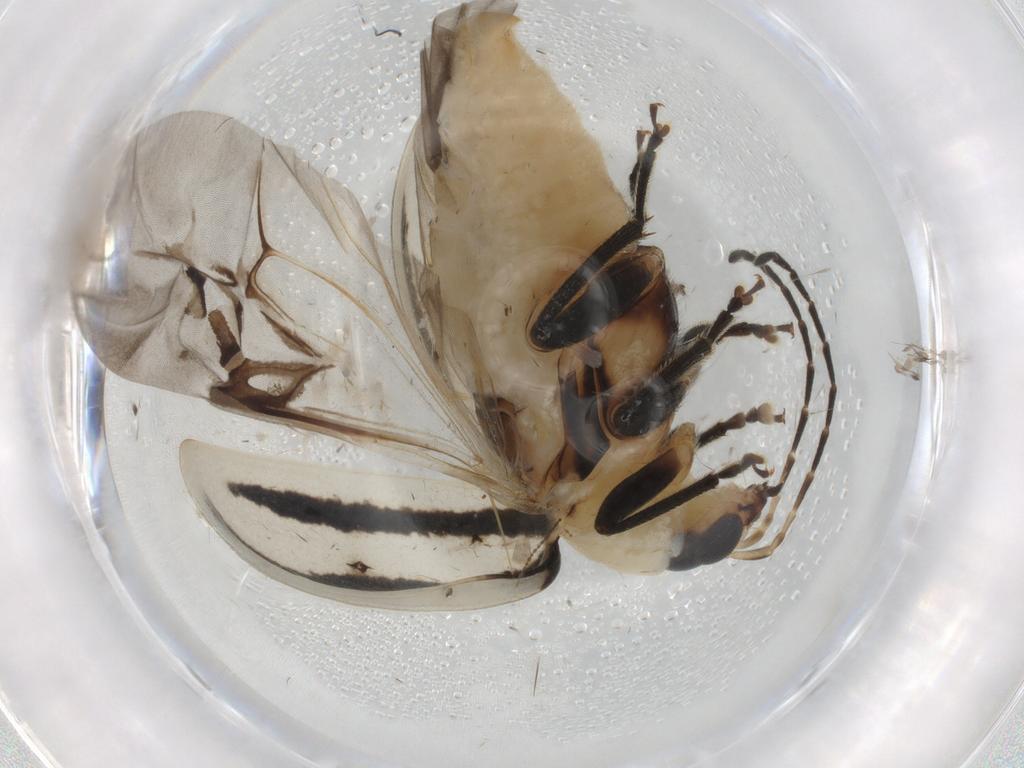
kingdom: Animalia
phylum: Arthropoda
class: Insecta
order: Coleoptera
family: Chrysomelidae
